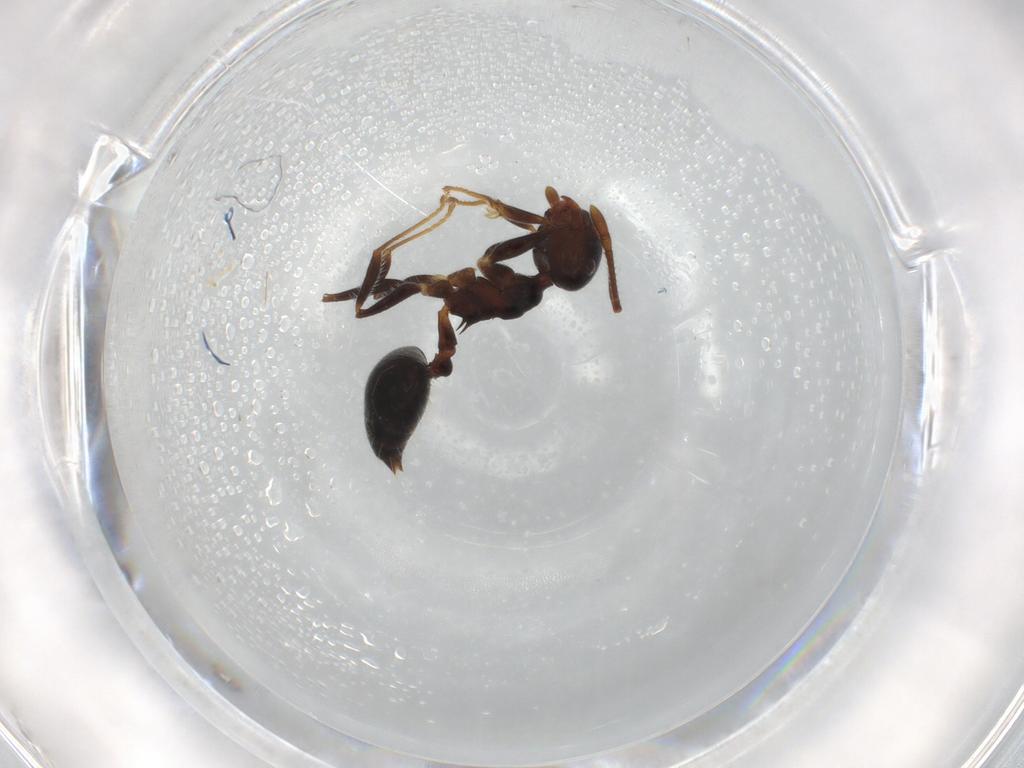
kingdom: Animalia
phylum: Arthropoda
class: Insecta
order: Hymenoptera
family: Formicidae
